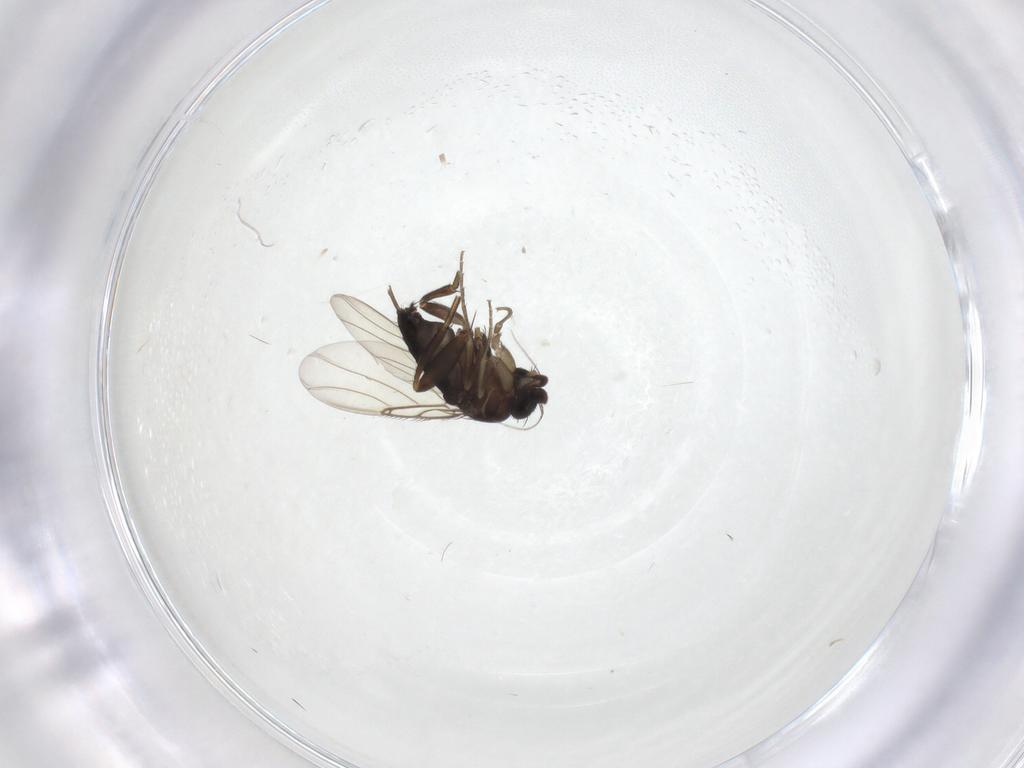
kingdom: Animalia
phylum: Arthropoda
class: Insecta
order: Diptera
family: Phoridae
